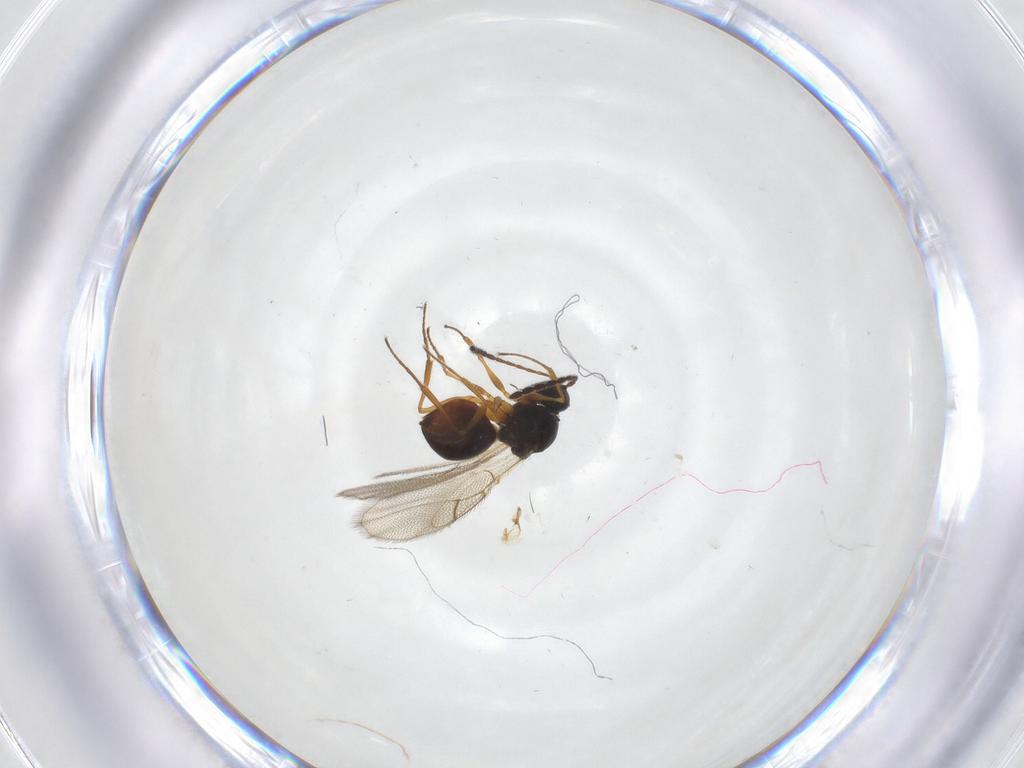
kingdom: Animalia
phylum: Arthropoda
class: Insecta
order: Hymenoptera
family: Figitidae
